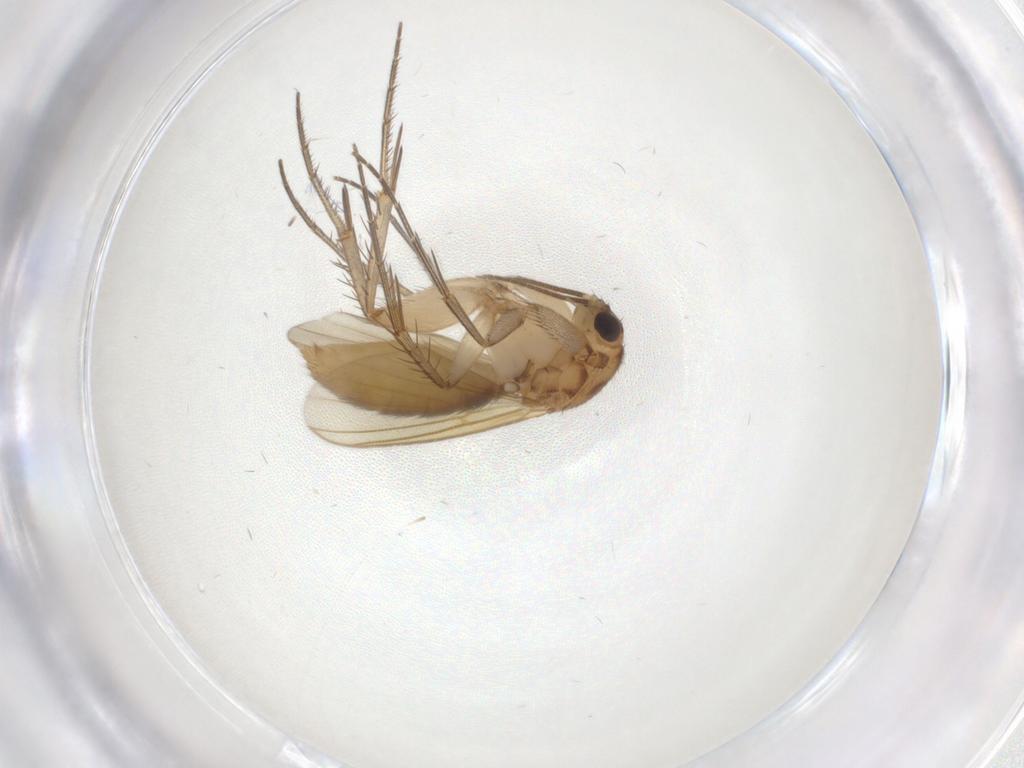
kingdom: Animalia
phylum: Arthropoda
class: Insecta
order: Diptera
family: Mycetophilidae
